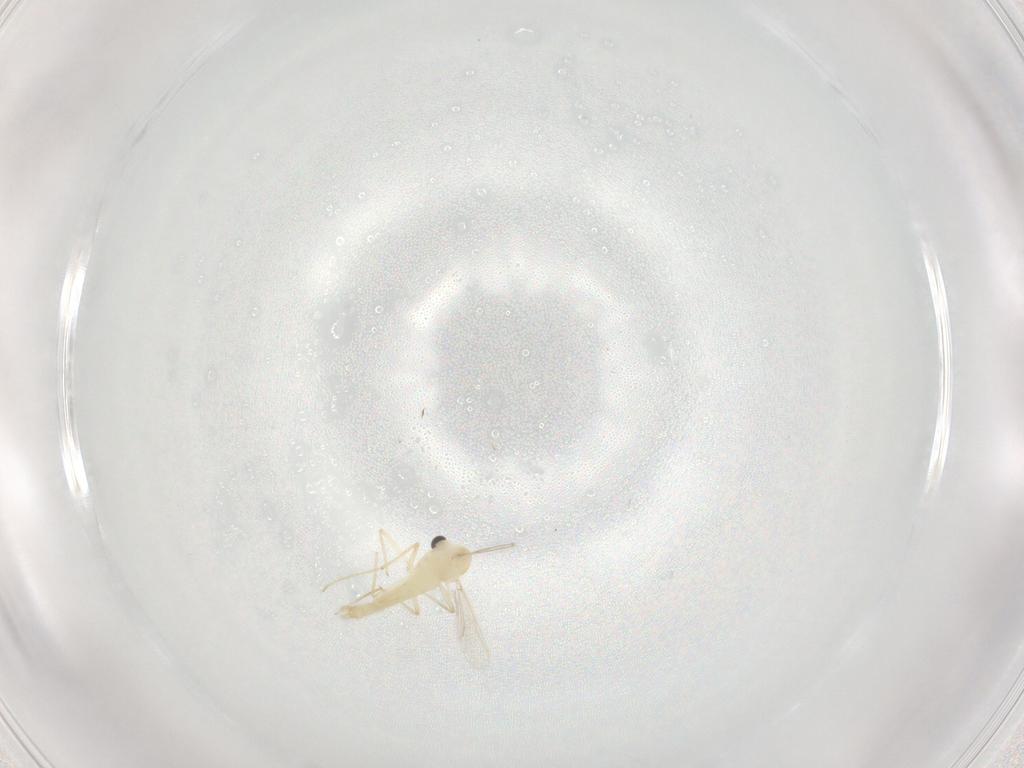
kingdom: Animalia
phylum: Arthropoda
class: Insecta
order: Diptera
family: Chironomidae
